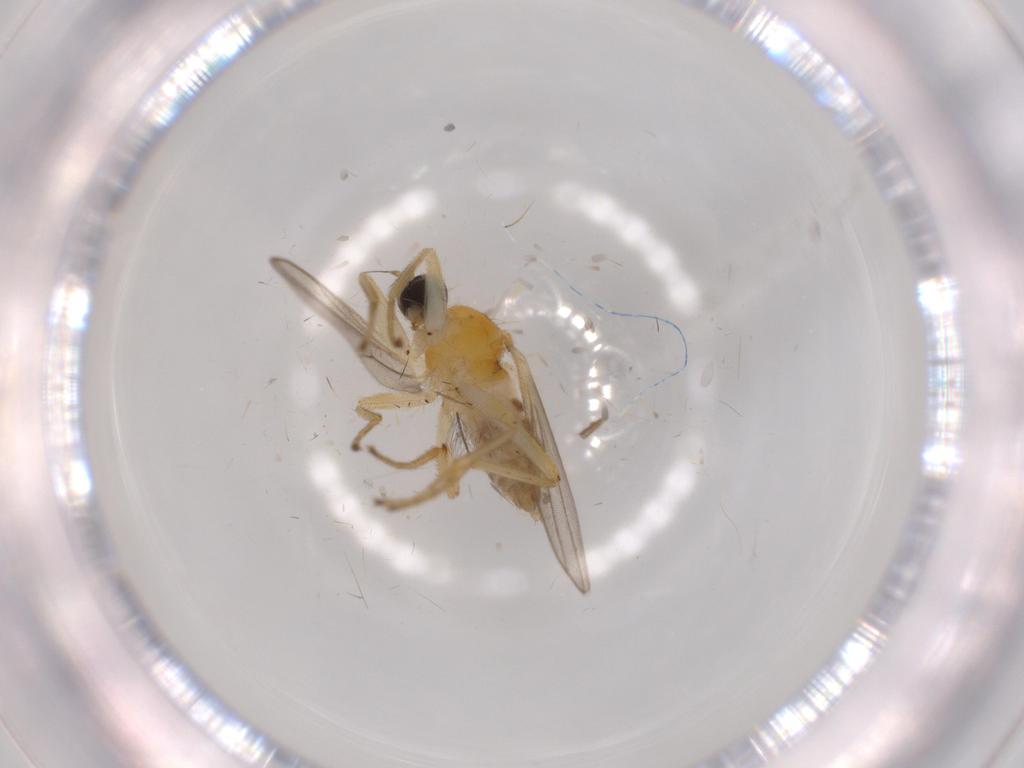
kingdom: Animalia
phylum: Arthropoda
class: Insecta
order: Diptera
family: Hybotidae
